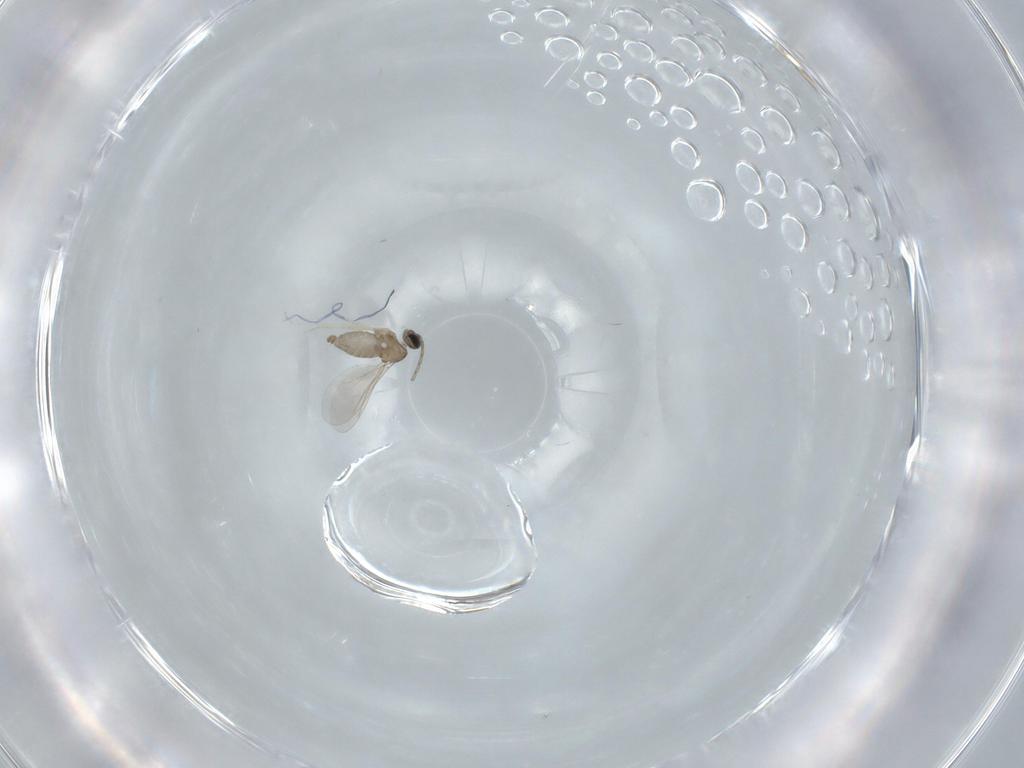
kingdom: Animalia
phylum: Arthropoda
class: Insecta
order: Diptera
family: Cecidomyiidae
